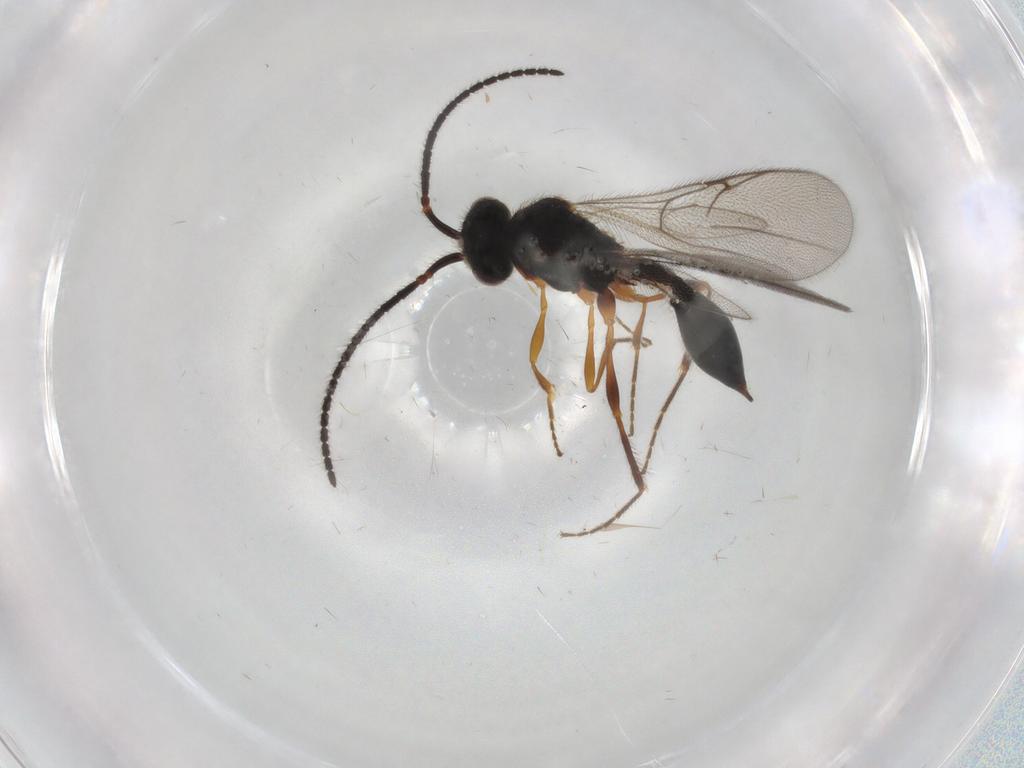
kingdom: Animalia
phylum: Arthropoda
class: Insecta
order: Hymenoptera
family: Diapriidae
